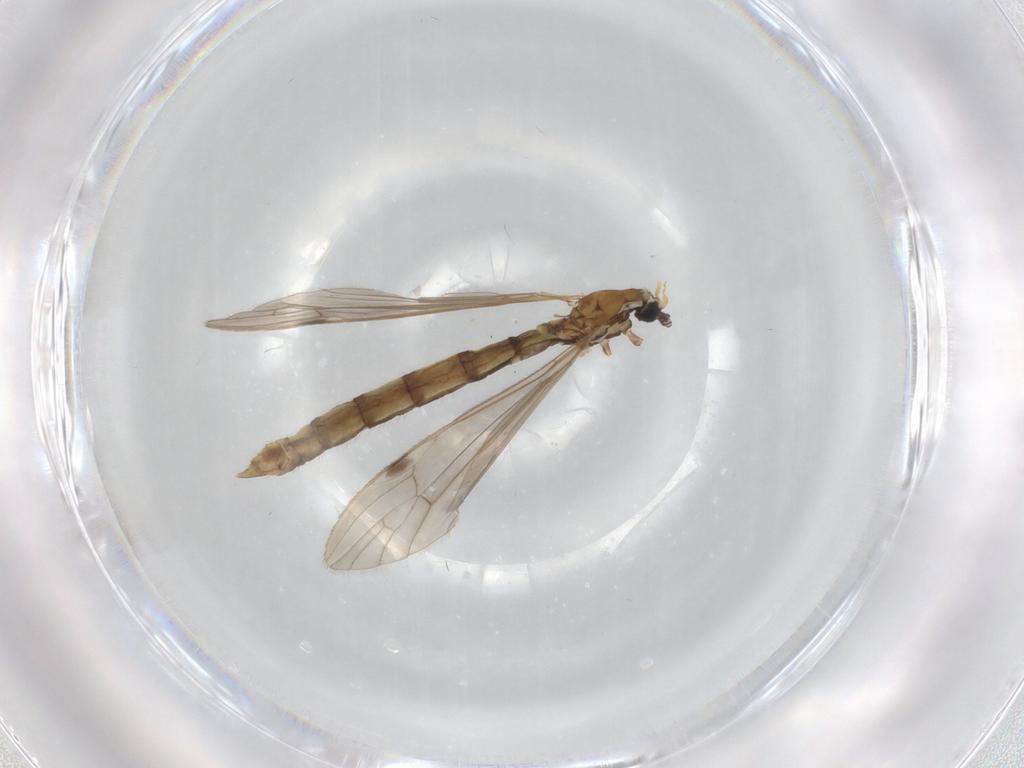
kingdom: Animalia
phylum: Arthropoda
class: Insecta
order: Diptera
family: Limoniidae
